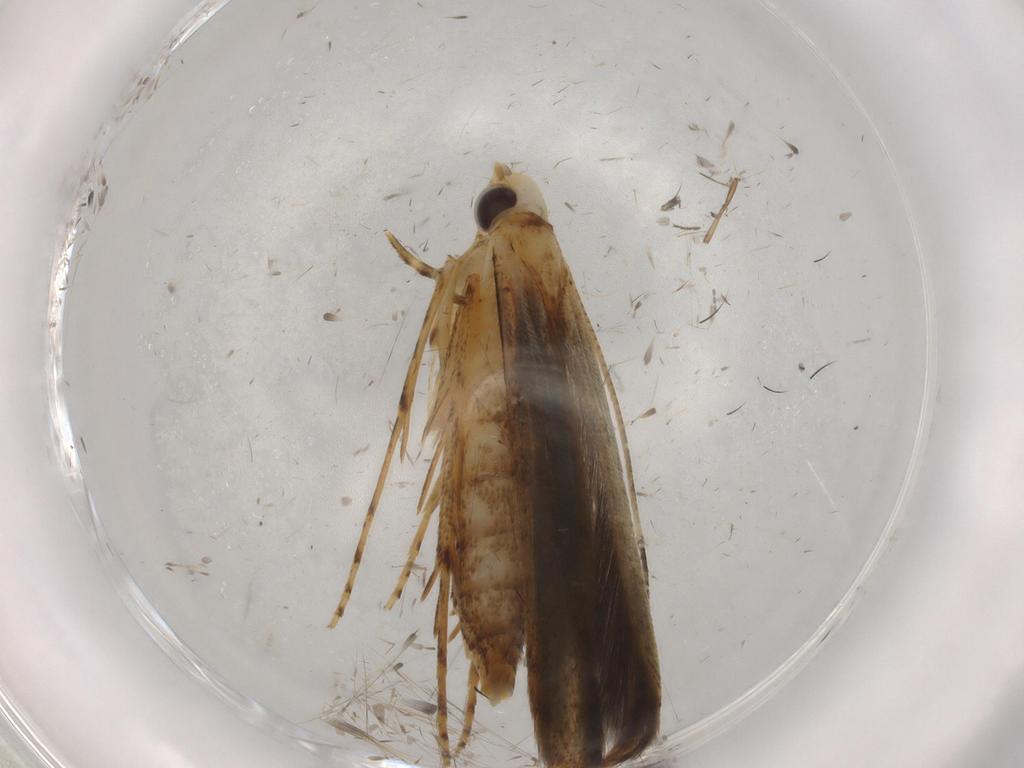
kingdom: Animalia
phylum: Arthropoda
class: Insecta
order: Lepidoptera
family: Batrachedridae
